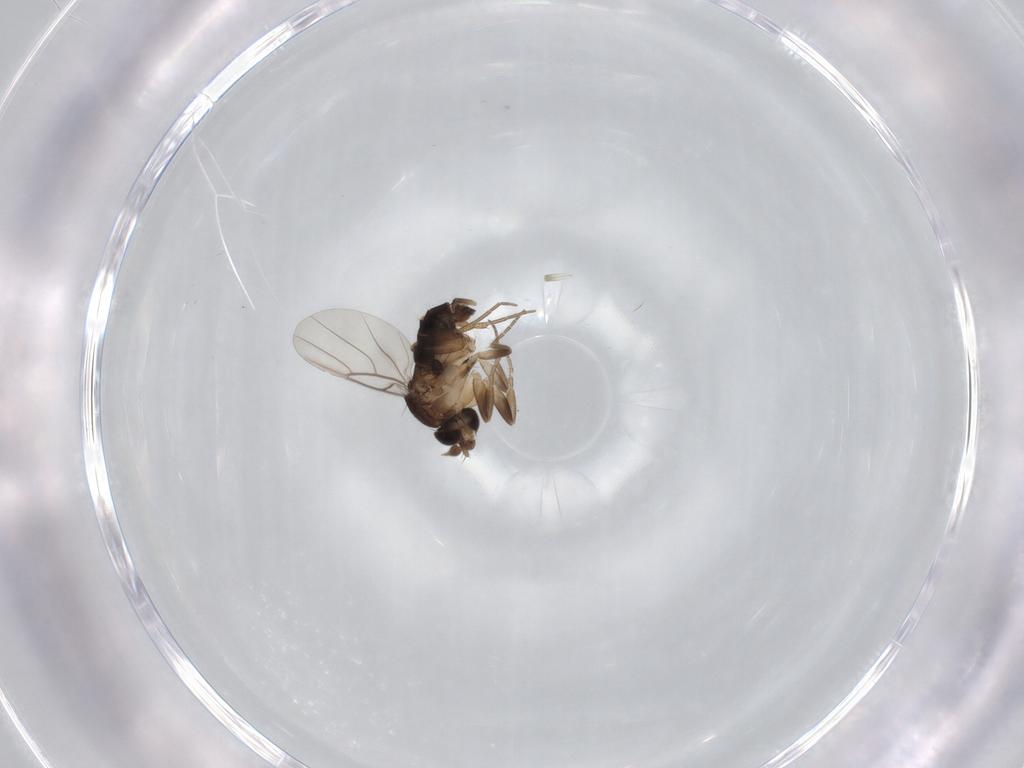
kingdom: Animalia
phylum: Arthropoda
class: Insecta
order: Diptera
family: Phoridae
